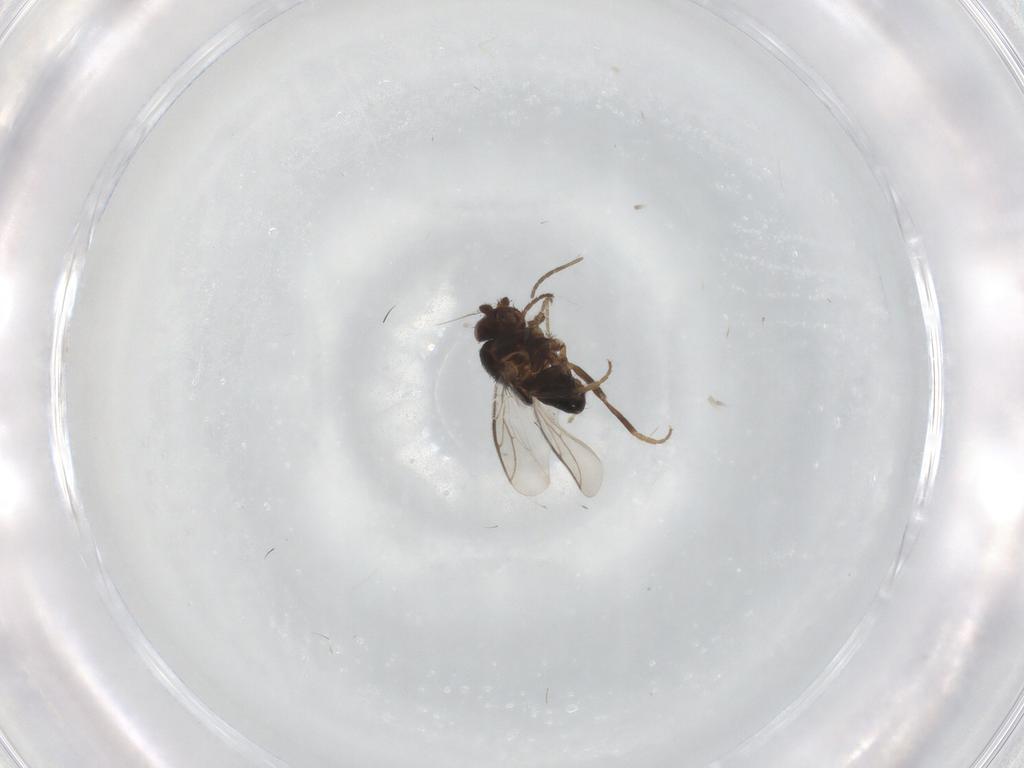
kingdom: Animalia
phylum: Arthropoda
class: Insecta
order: Diptera
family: Sphaeroceridae
